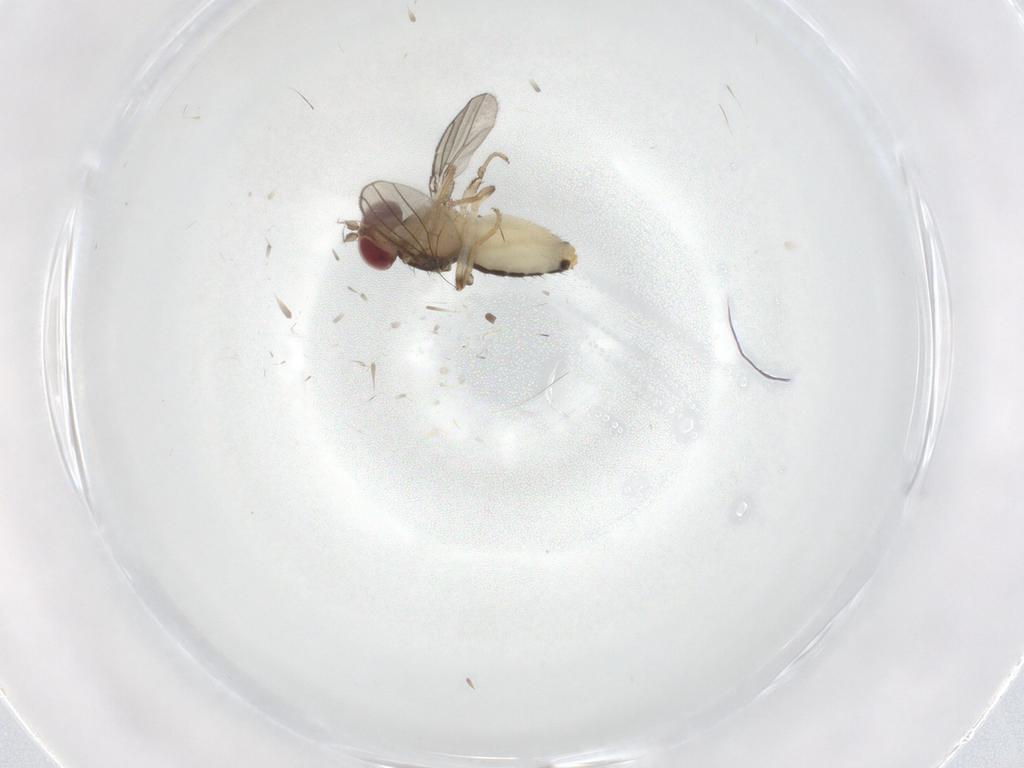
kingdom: Animalia
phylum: Arthropoda
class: Insecta
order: Diptera
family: Anthomyzidae
